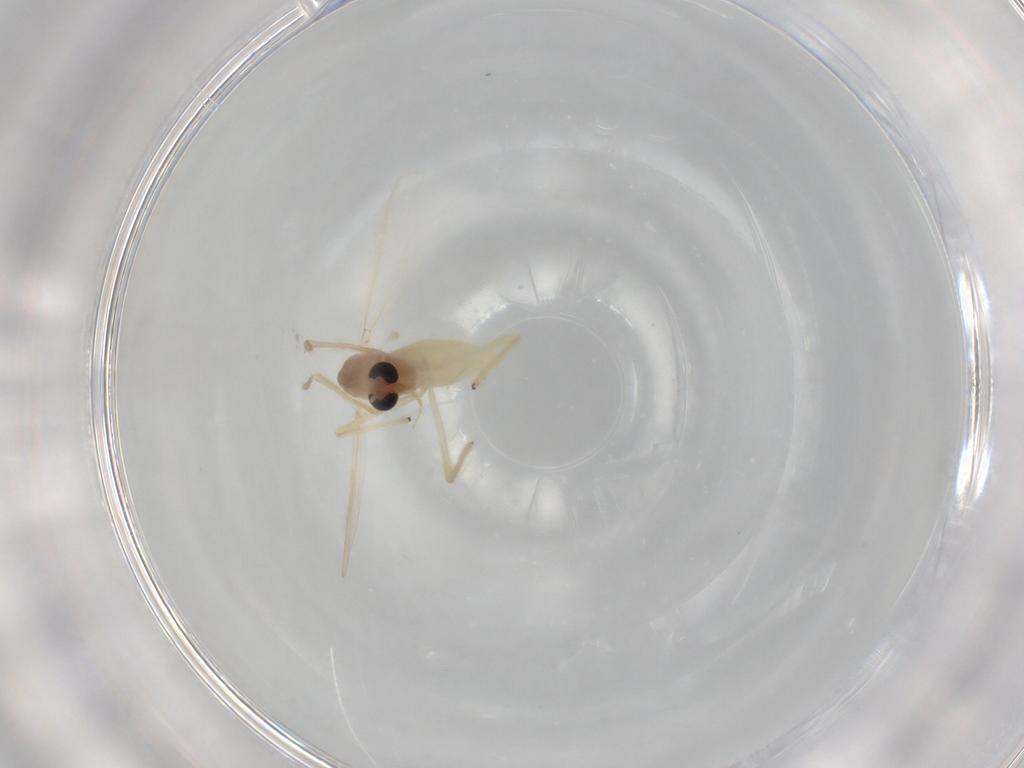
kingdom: Animalia
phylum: Arthropoda
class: Insecta
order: Diptera
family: Chironomidae
